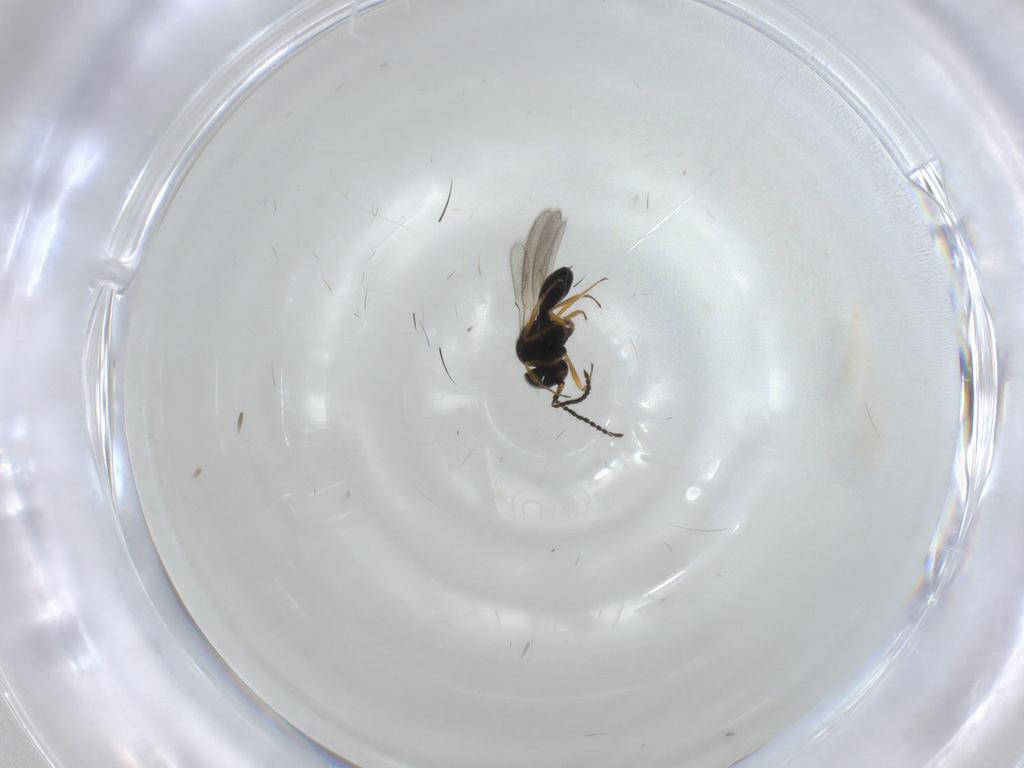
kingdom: Animalia
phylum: Arthropoda
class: Insecta
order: Hymenoptera
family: Scelionidae
